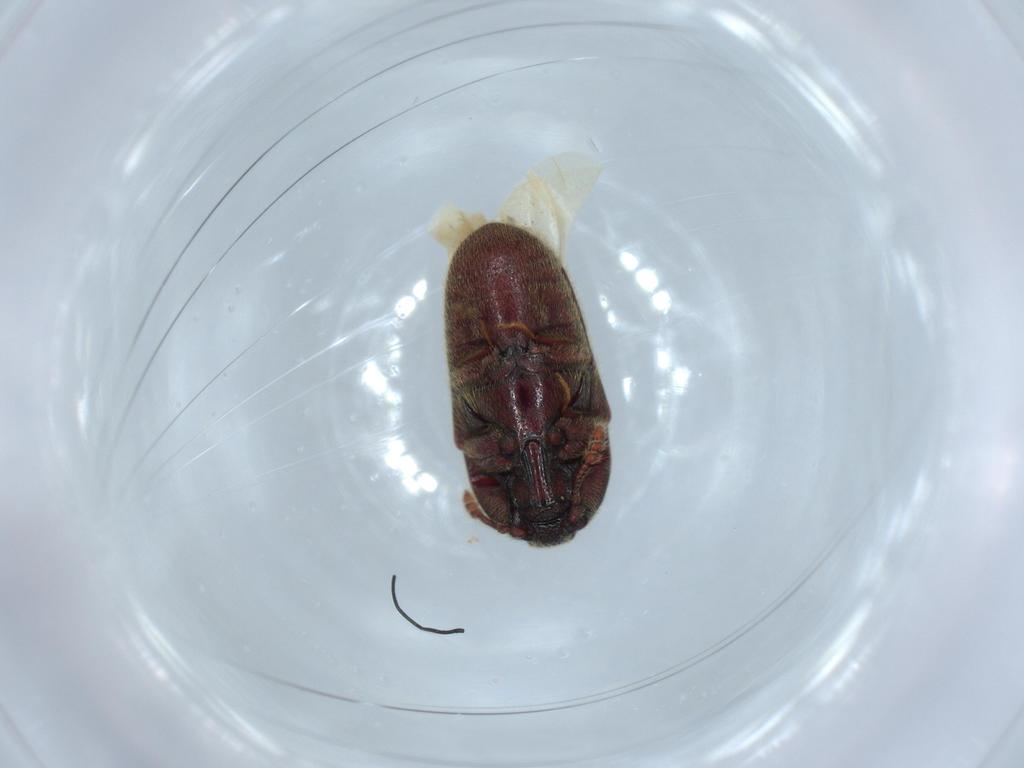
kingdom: Animalia
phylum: Arthropoda
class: Insecta
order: Coleoptera
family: Throscidae
